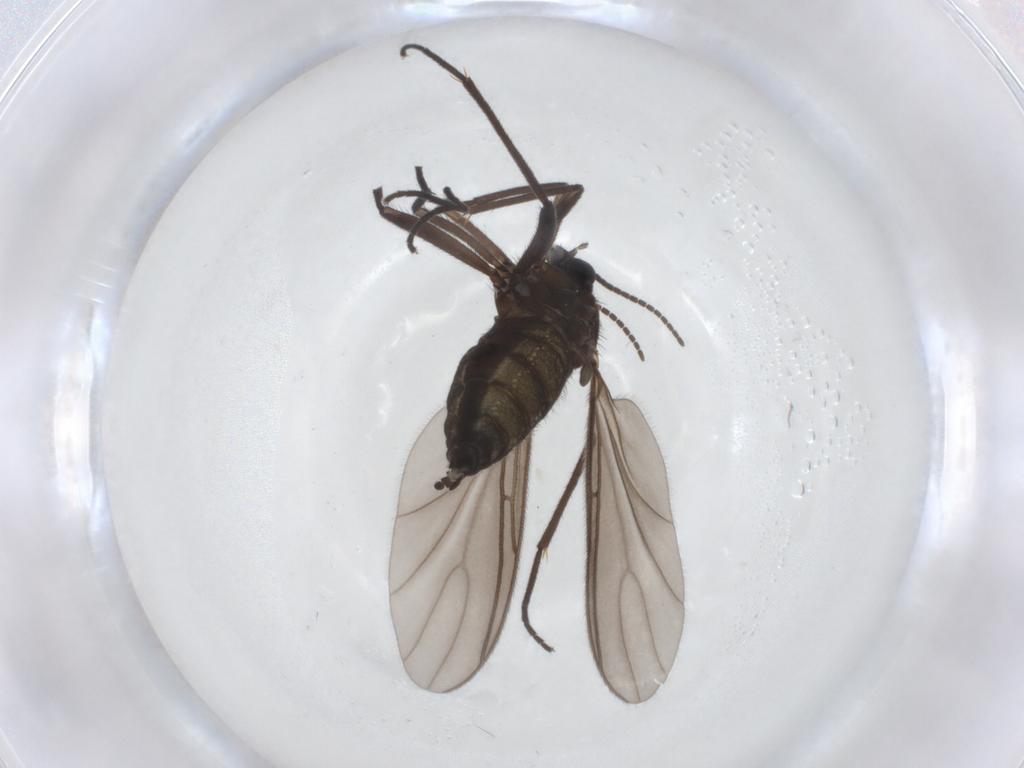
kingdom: Animalia
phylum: Arthropoda
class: Insecta
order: Diptera
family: Sciaridae
